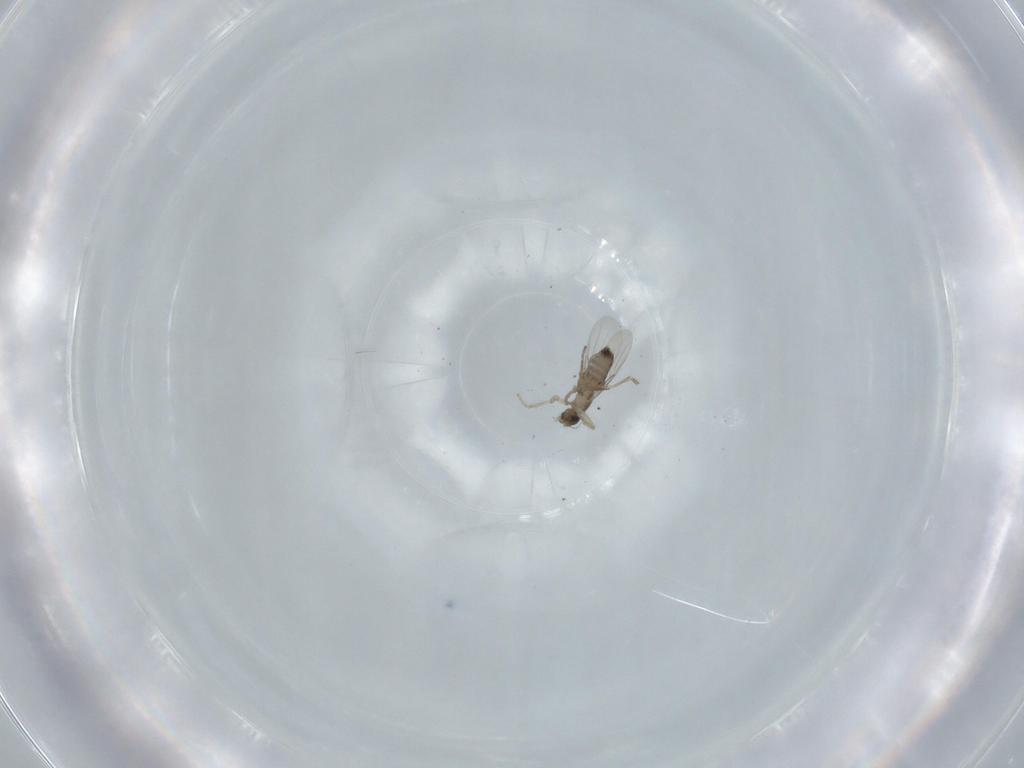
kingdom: Animalia
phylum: Arthropoda
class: Insecta
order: Diptera
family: Phoridae
